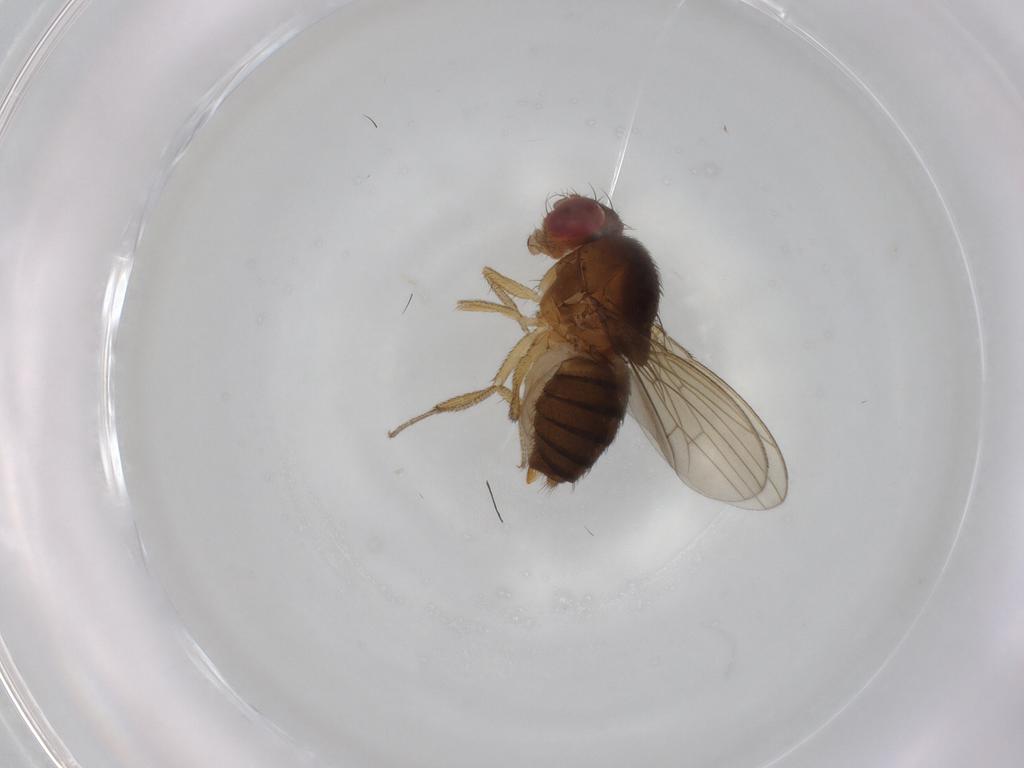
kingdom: Animalia
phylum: Arthropoda
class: Insecta
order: Diptera
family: Drosophilidae
